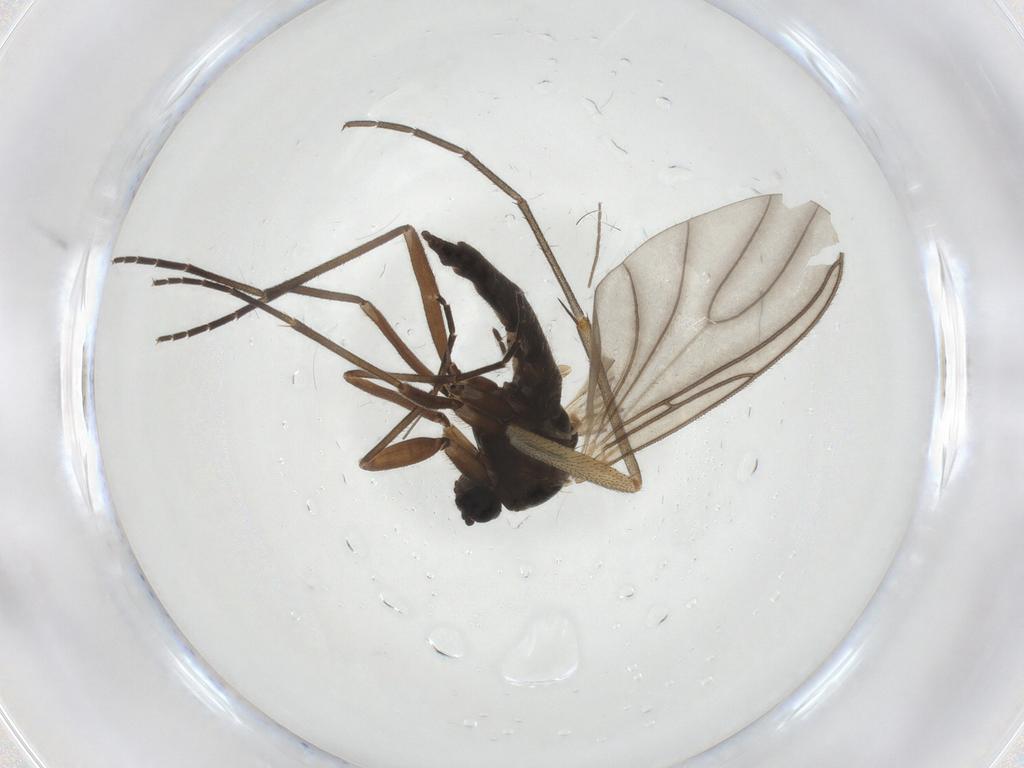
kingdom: Animalia
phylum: Arthropoda
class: Insecta
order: Diptera
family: Sciaridae
